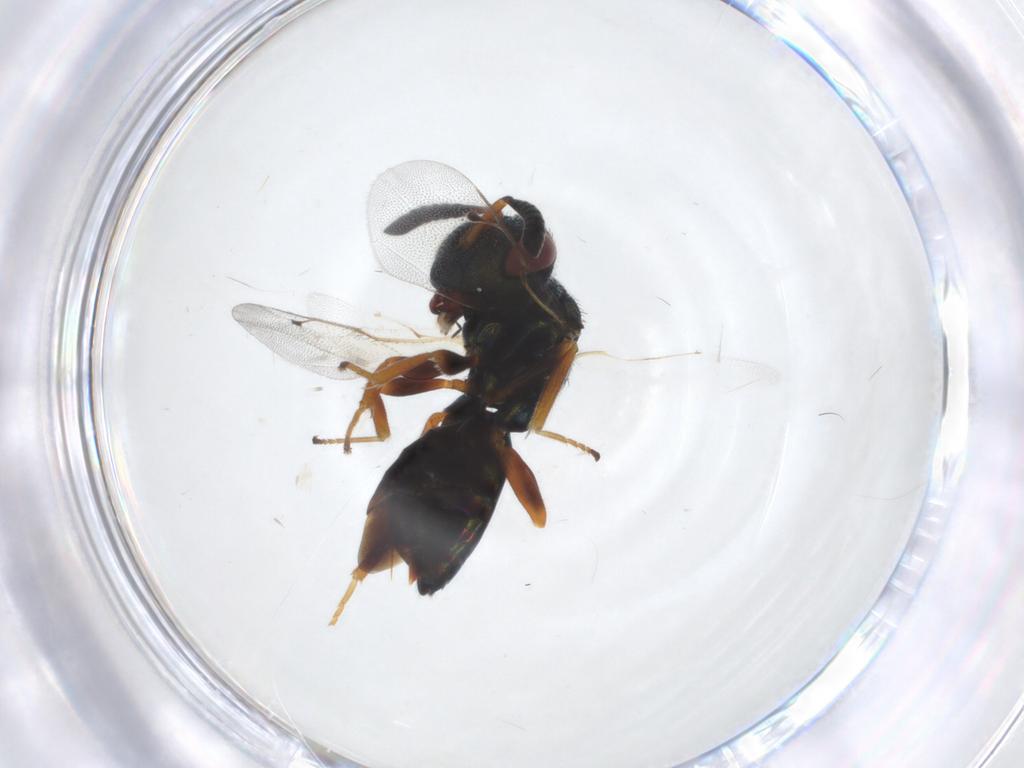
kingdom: Animalia
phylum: Arthropoda
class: Insecta
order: Hymenoptera
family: Pteromalidae
